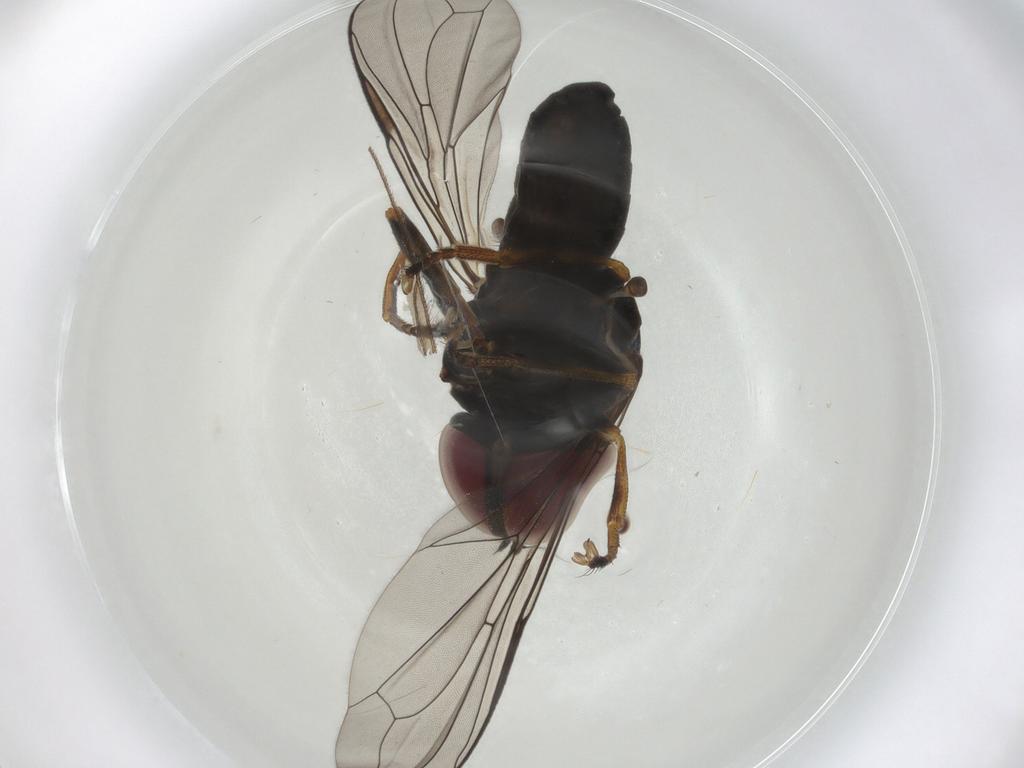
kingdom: Animalia
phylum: Arthropoda
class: Insecta
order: Diptera
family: Pipunculidae
